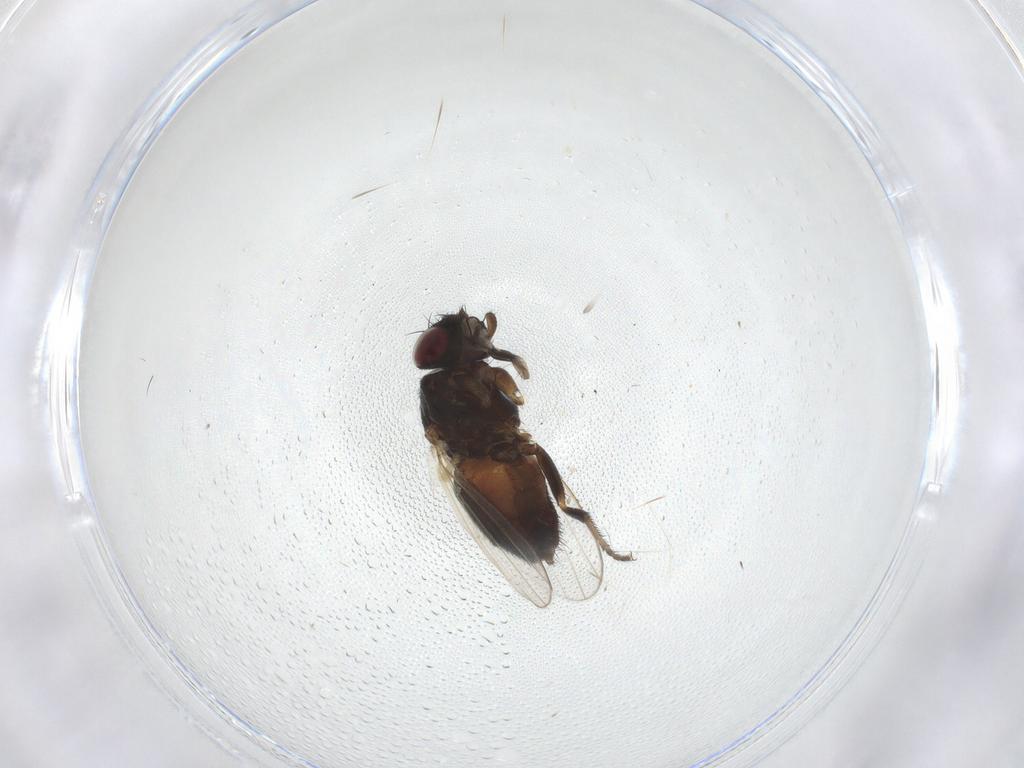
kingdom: Animalia
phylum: Arthropoda
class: Insecta
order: Diptera
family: Milichiidae
